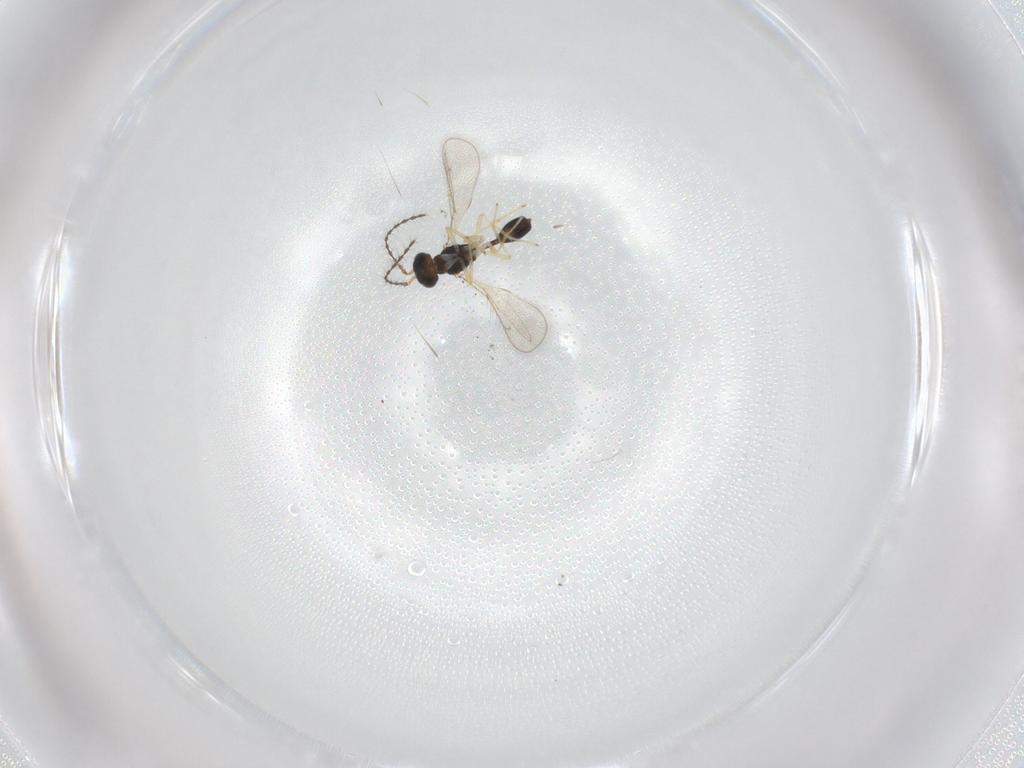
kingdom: Animalia
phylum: Arthropoda
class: Insecta
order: Hymenoptera
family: Diparidae
